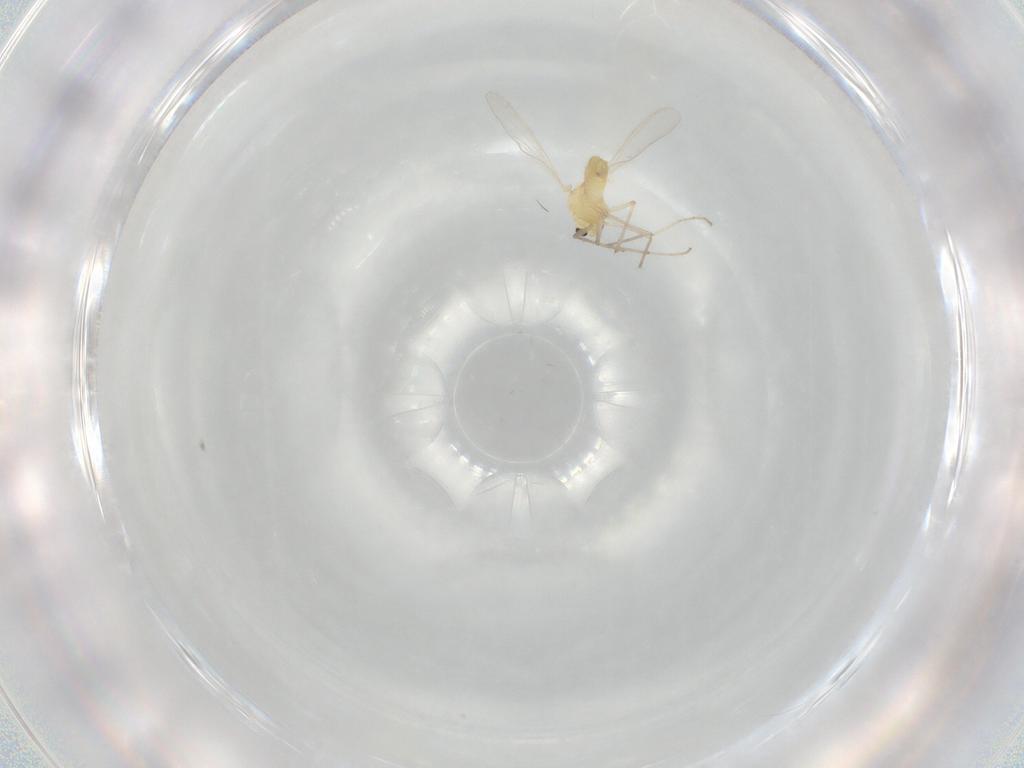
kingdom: Animalia
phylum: Arthropoda
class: Insecta
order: Diptera
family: Chironomidae
